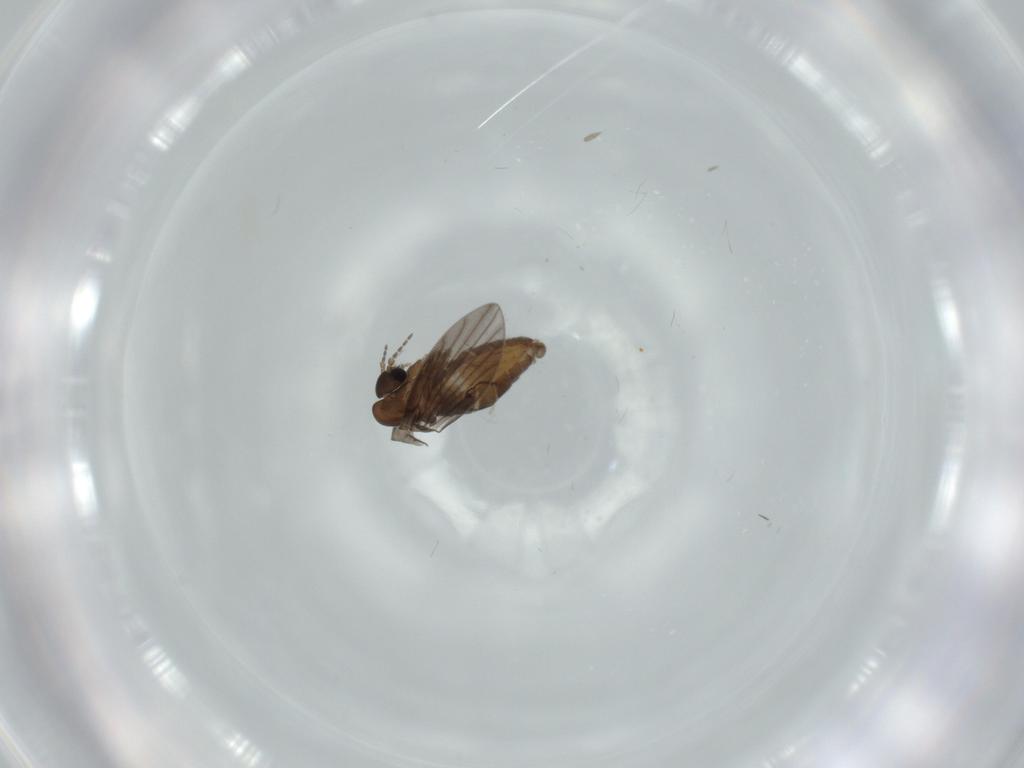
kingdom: Animalia
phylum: Arthropoda
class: Insecta
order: Diptera
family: Psychodidae
